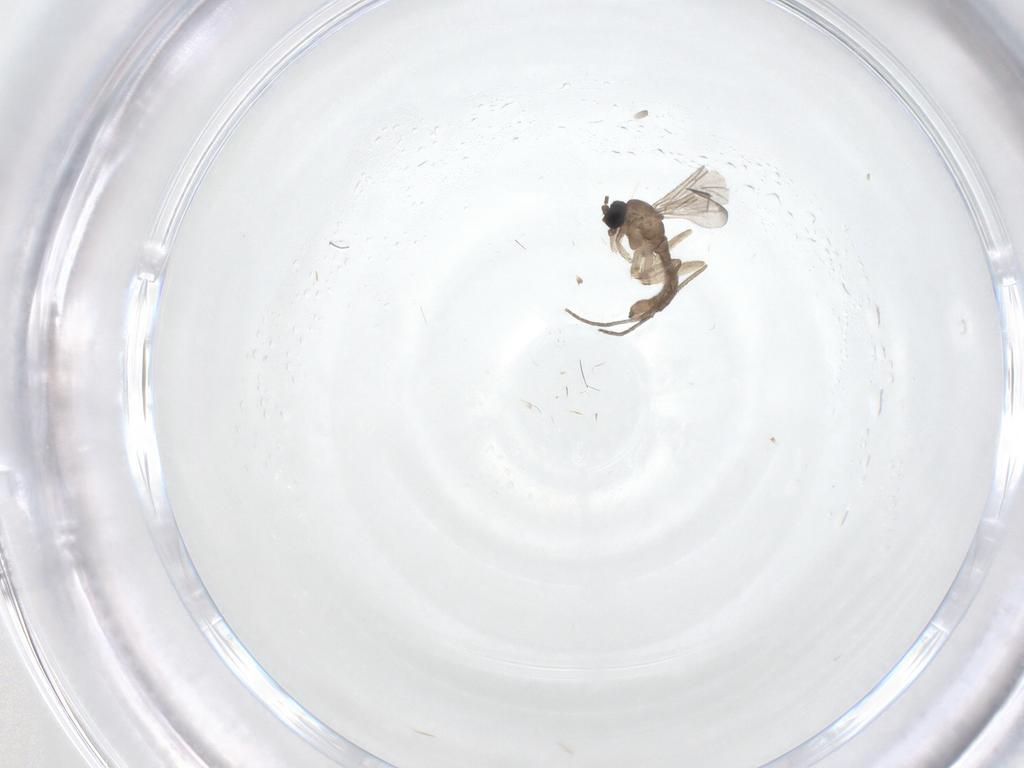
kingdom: Animalia
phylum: Arthropoda
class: Insecta
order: Diptera
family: Sciaridae
